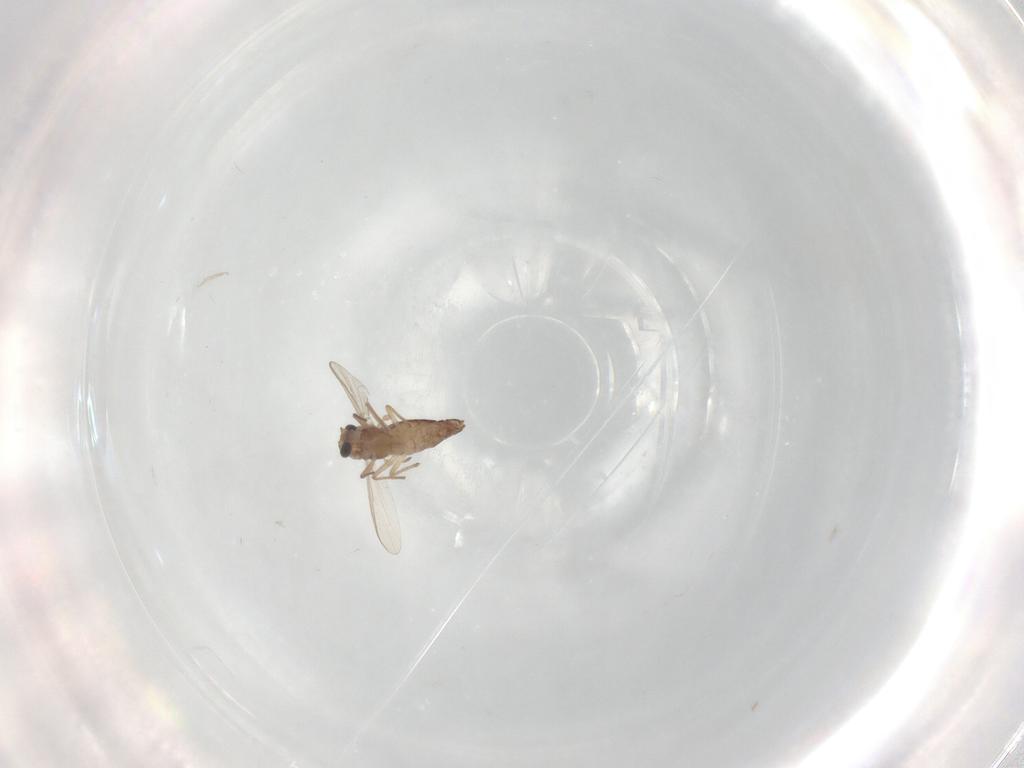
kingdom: Animalia
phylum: Arthropoda
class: Insecta
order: Diptera
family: Chironomidae
